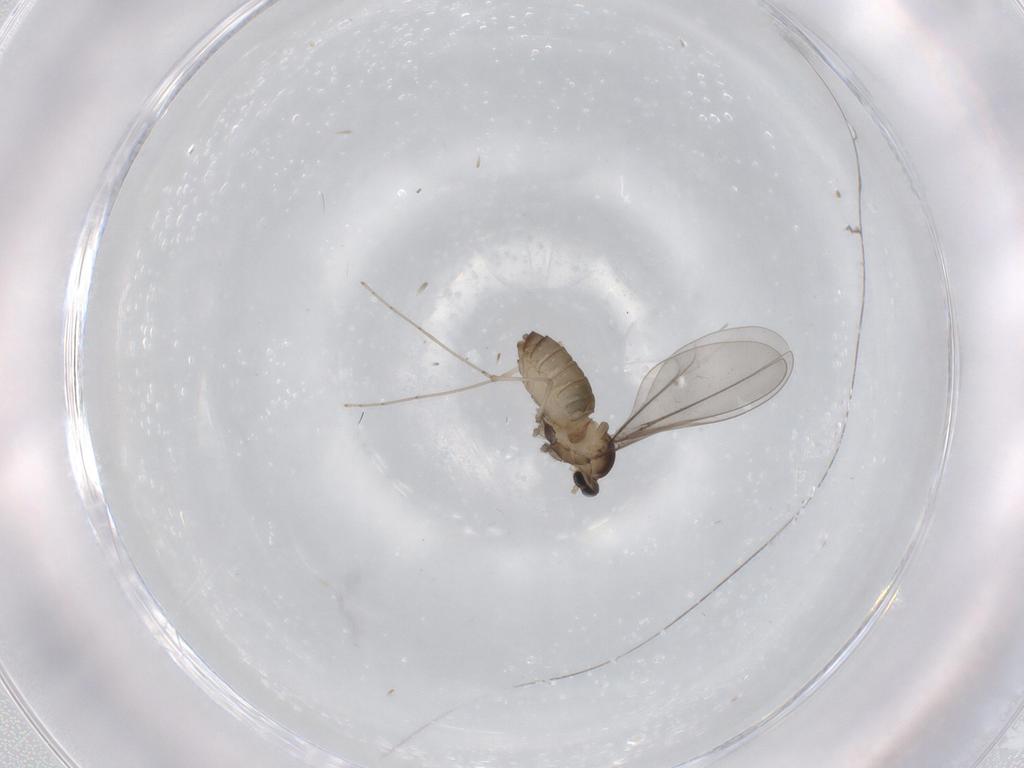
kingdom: Animalia
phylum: Arthropoda
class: Insecta
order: Diptera
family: Cecidomyiidae
